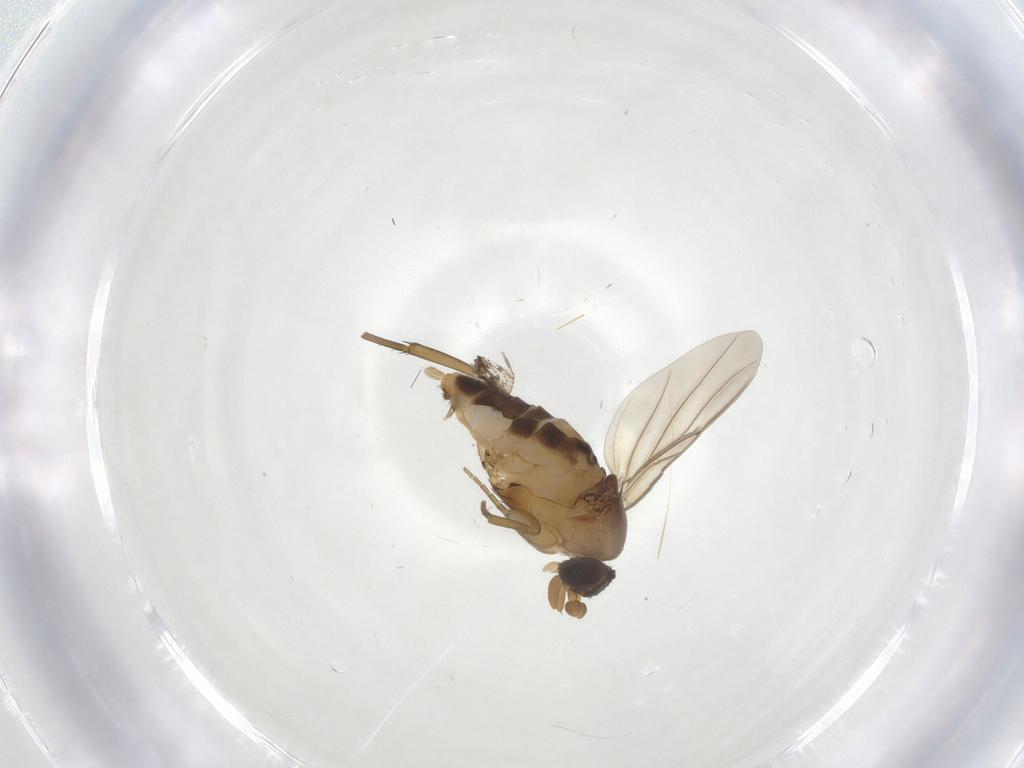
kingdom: Animalia
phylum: Arthropoda
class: Insecta
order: Diptera
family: Phoridae
